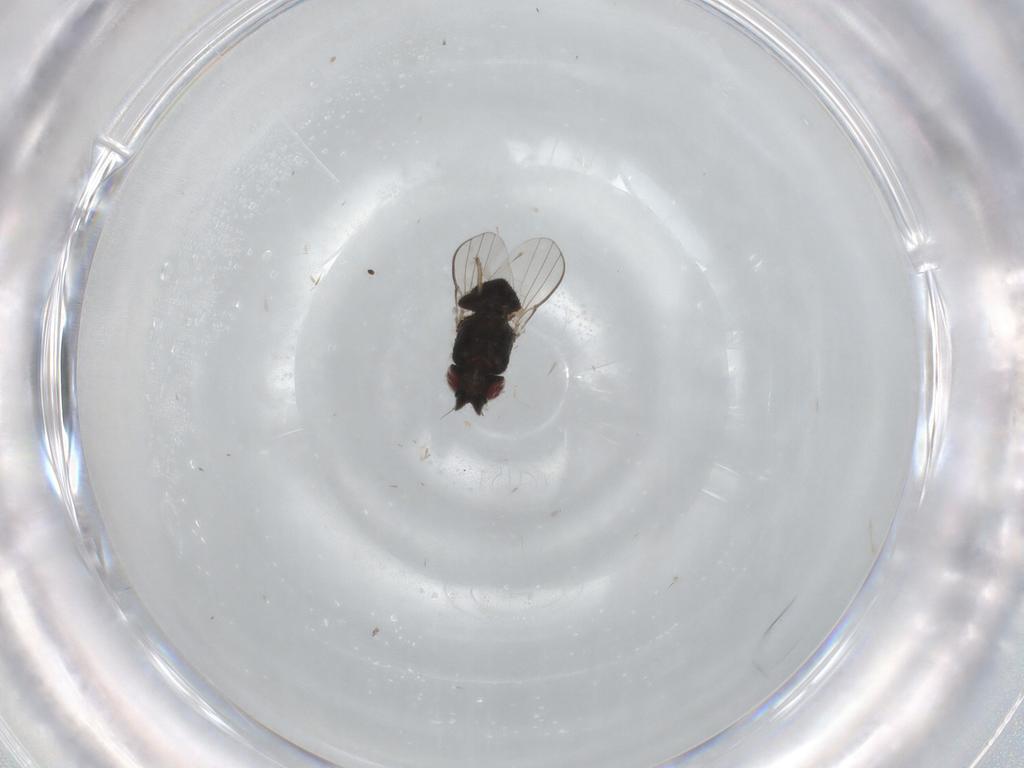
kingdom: Animalia
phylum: Arthropoda
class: Insecta
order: Diptera
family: Milichiidae
